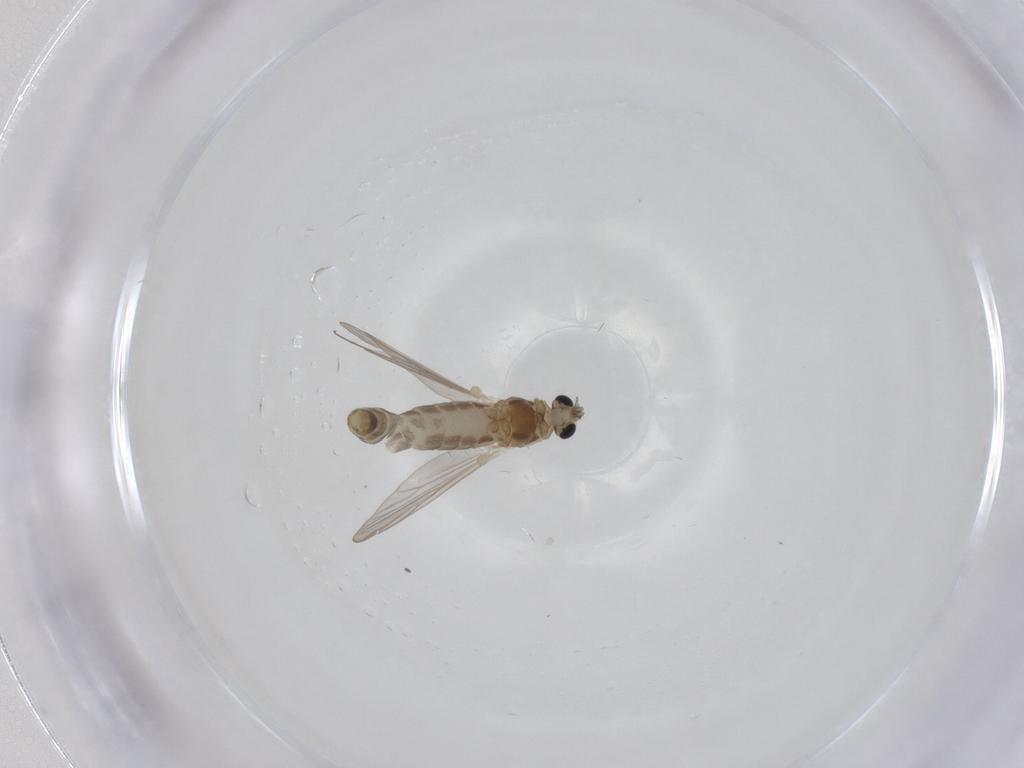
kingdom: Animalia
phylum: Arthropoda
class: Insecta
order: Diptera
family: Chironomidae
